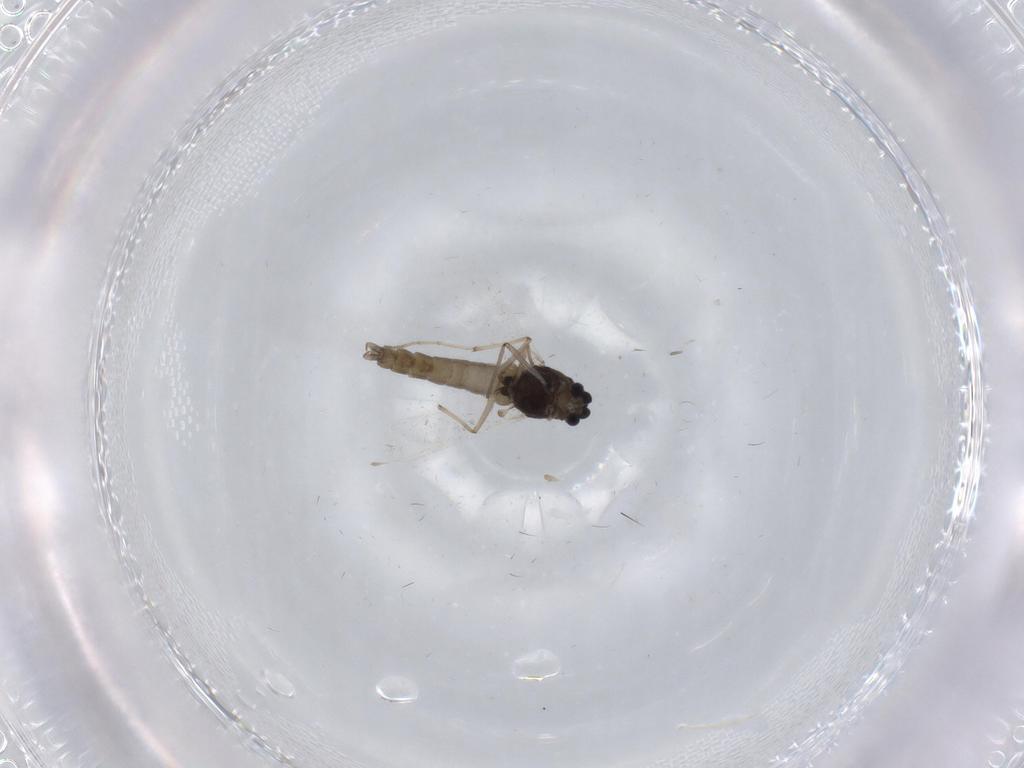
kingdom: Animalia
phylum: Arthropoda
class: Insecta
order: Diptera
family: Chironomidae
